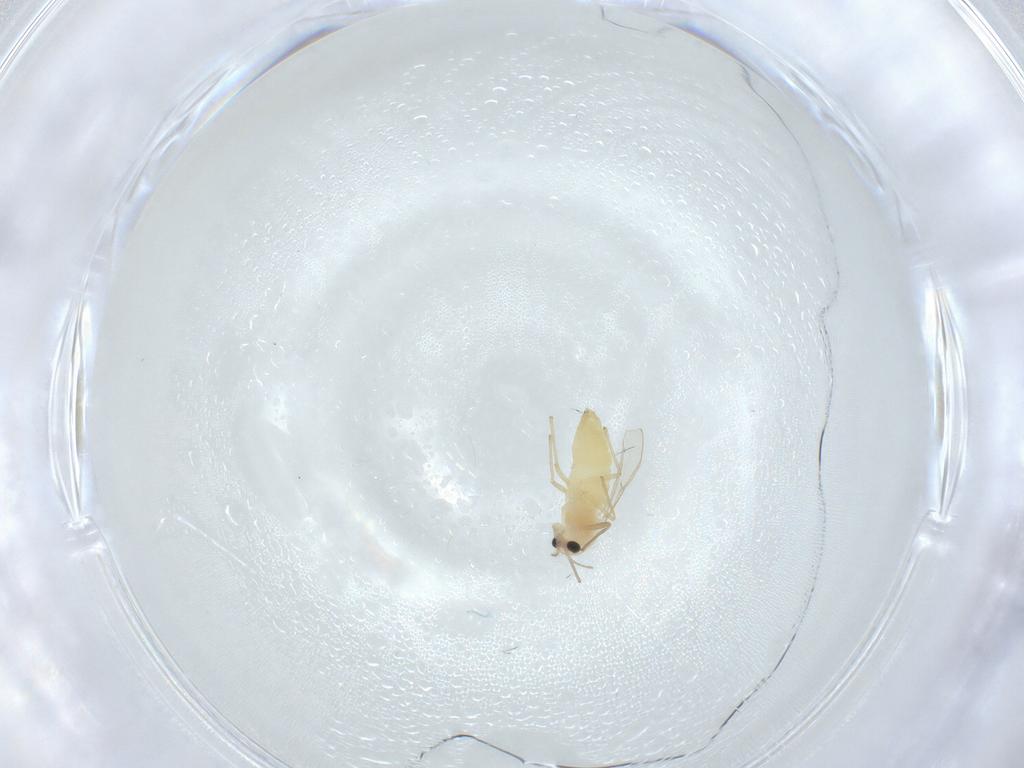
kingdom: Animalia
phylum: Arthropoda
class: Insecta
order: Diptera
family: Chironomidae
